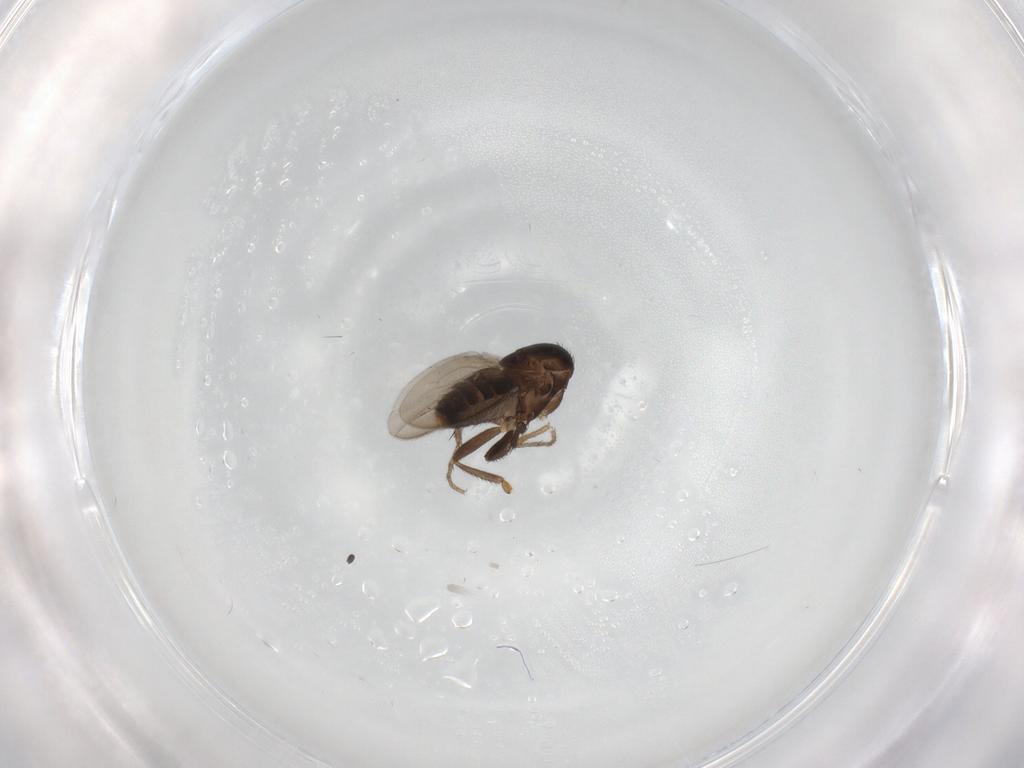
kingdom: Animalia
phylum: Arthropoda
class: Insecta
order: Diptera
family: Sphaeroceridae
